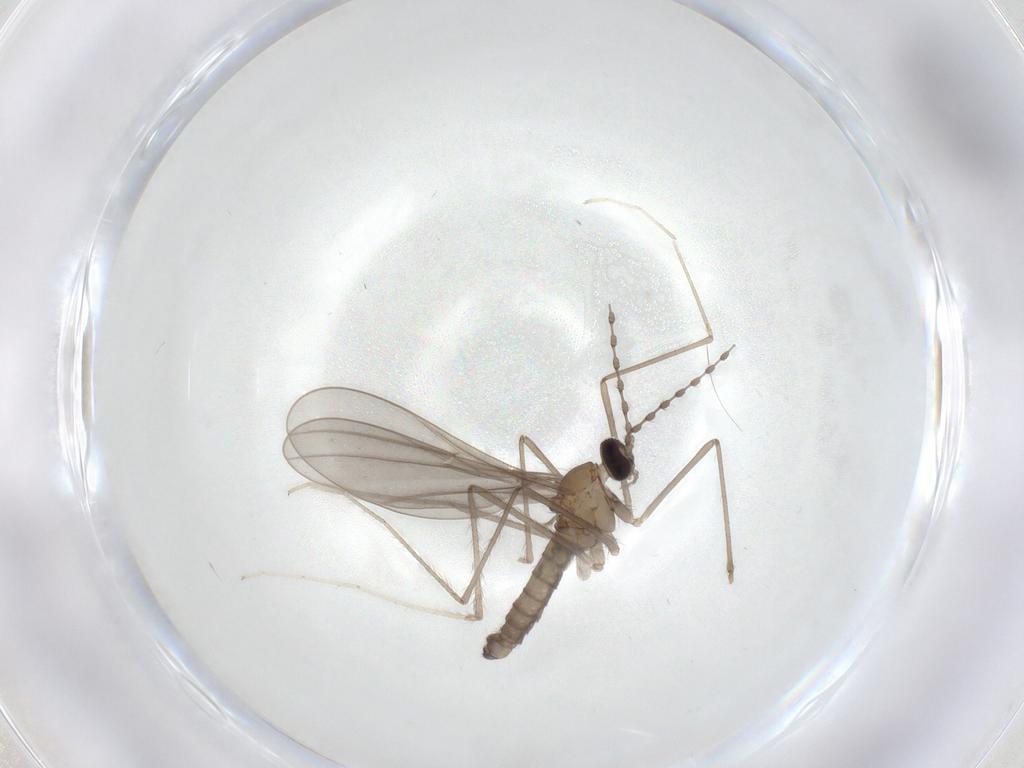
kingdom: Animalia
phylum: Arthropoda
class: Insecta
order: Diptera
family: Cecidomyiidae
